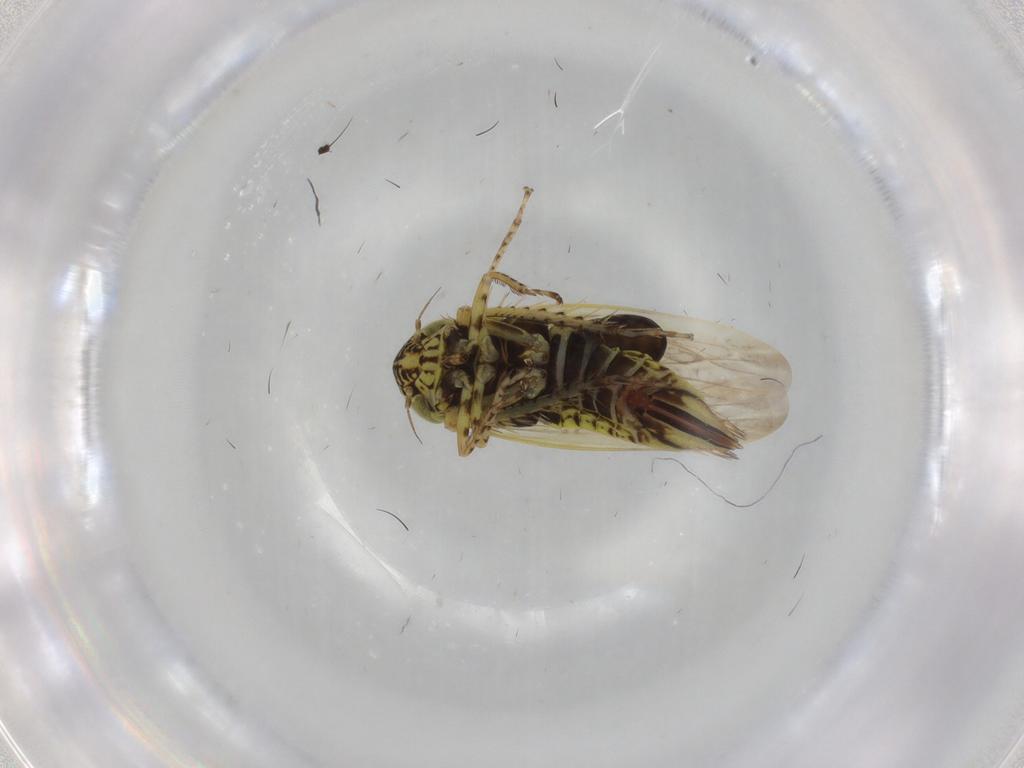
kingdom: Animalia
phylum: Arthropoda
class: Insecta
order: Hemiptera
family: Cicadellidae
